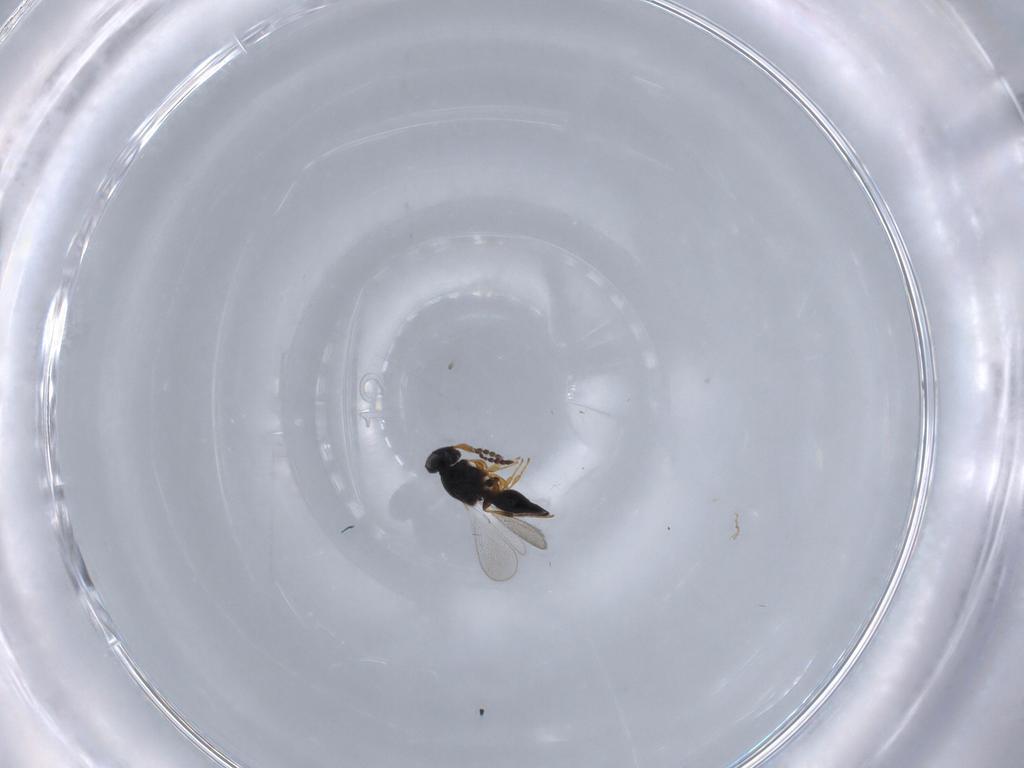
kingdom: Animalia
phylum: Arthropoda
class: Insecta
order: Hymenoptera
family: Platygastridae
